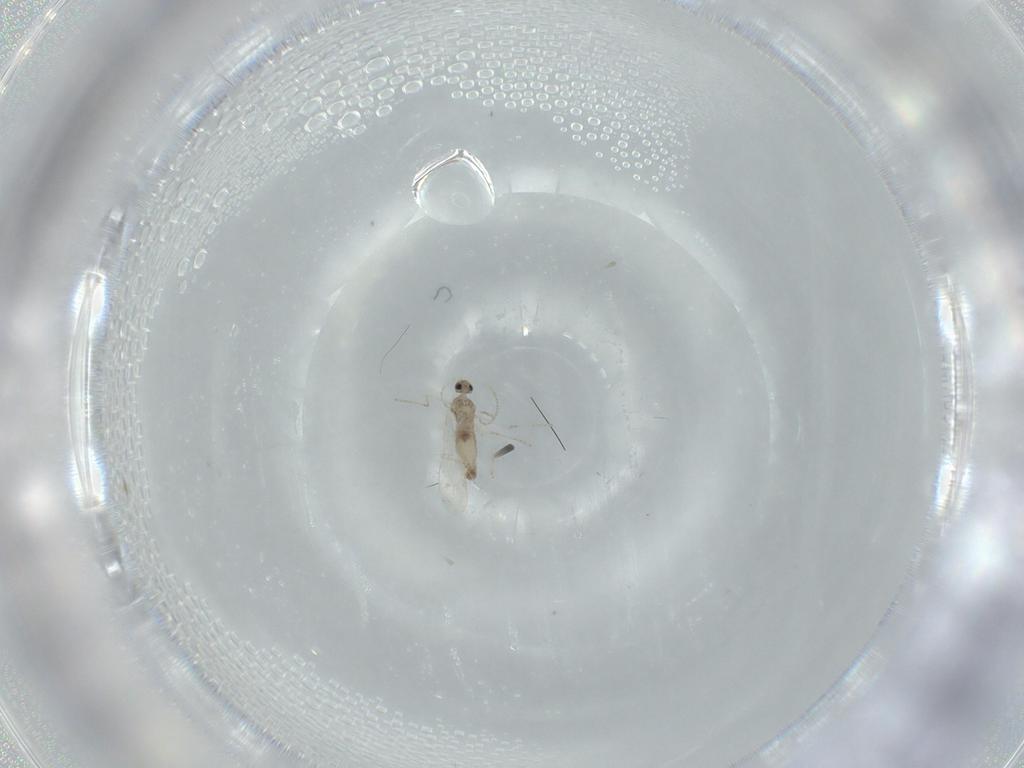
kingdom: Animalia
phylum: Arthropoda
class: Insecta
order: Diptera
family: Cecidomyiidae
